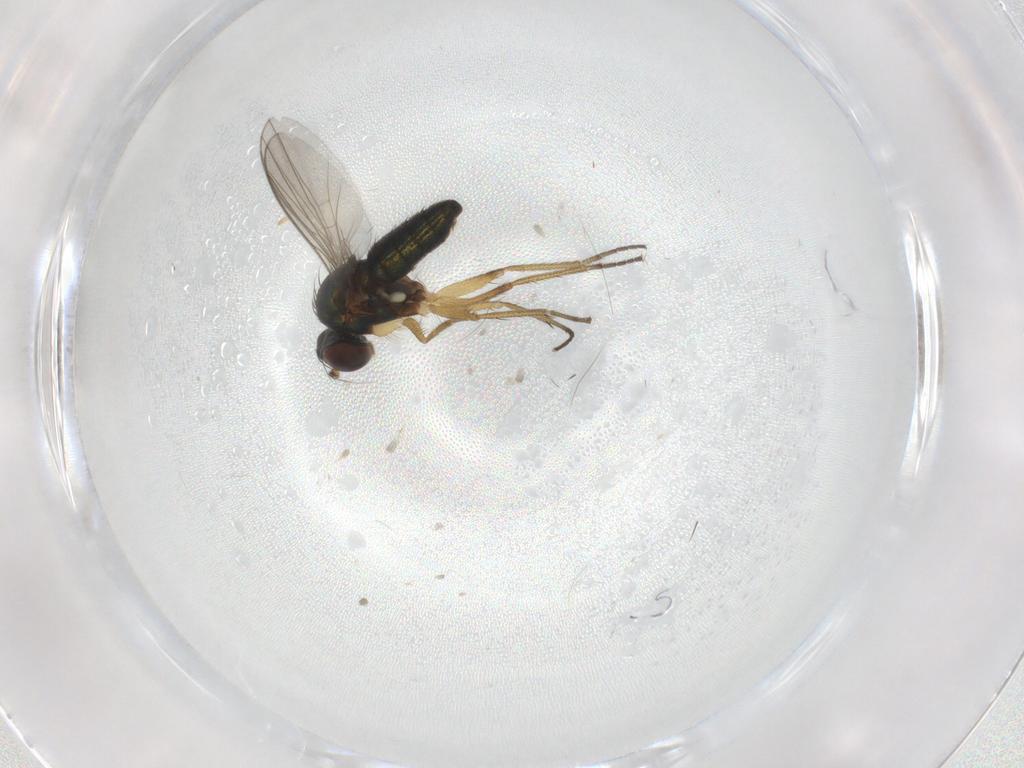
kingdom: Animalia
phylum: Arthropoda
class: Insecta
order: Diptera
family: Dolichopodidae
